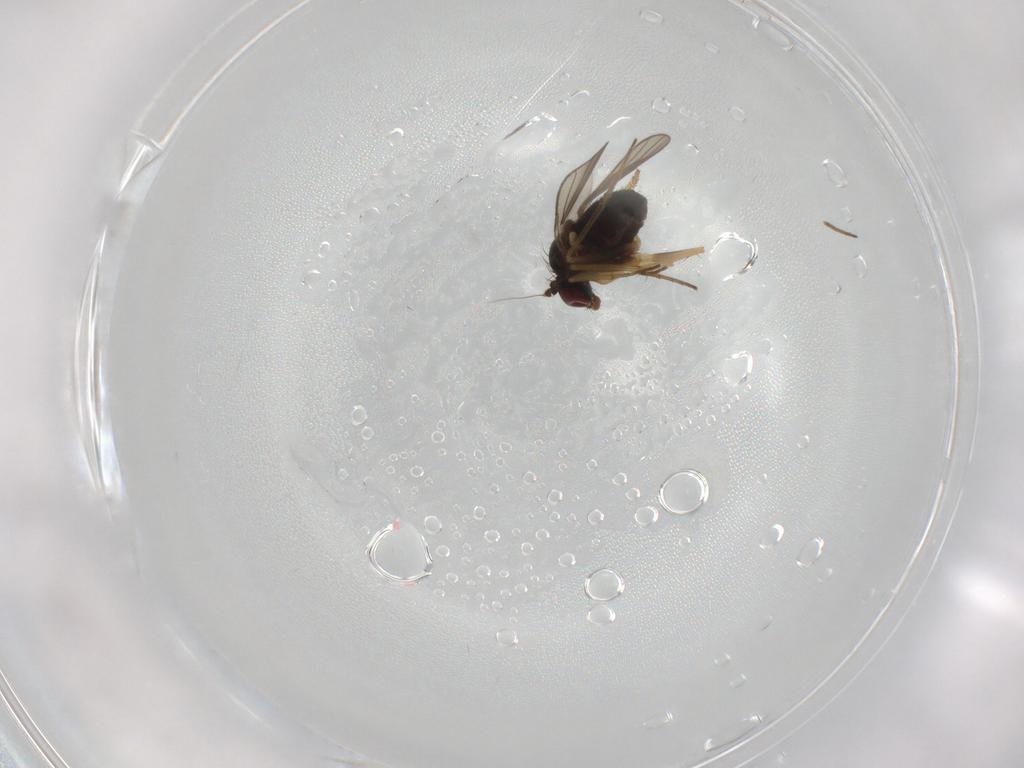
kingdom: Animalia
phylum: Arthropoda
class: Insecta
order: Diptera
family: Dolichopodidae
